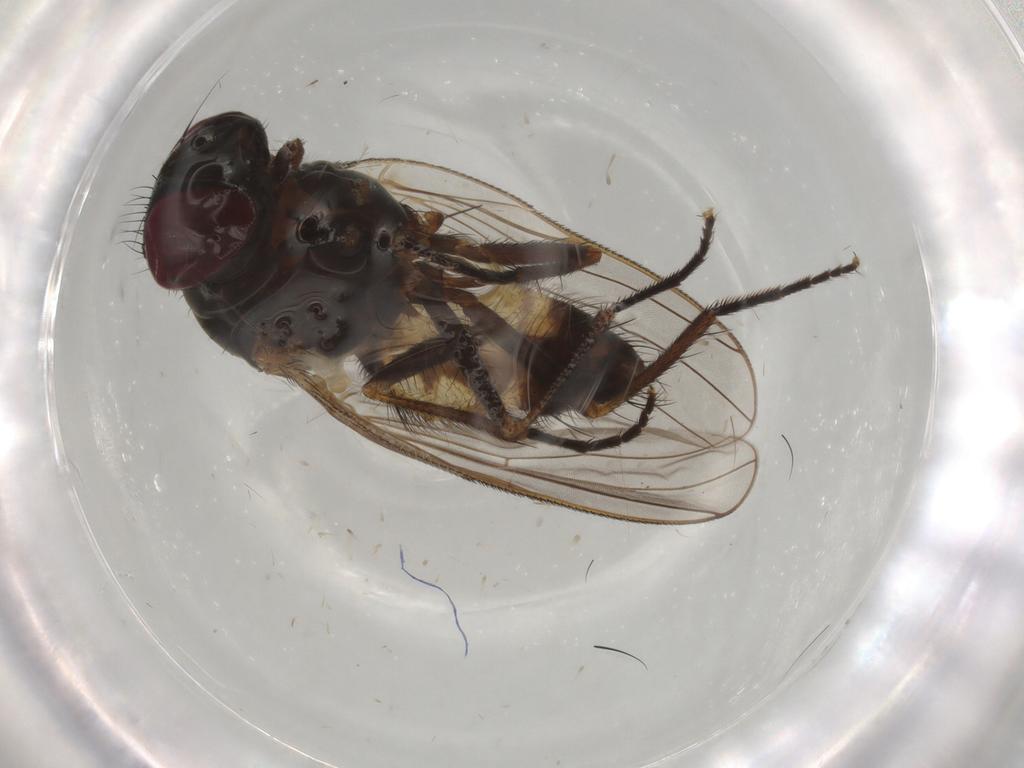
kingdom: Animalia
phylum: Arthropoda
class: Insecta
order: Diptera
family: Phoridae
